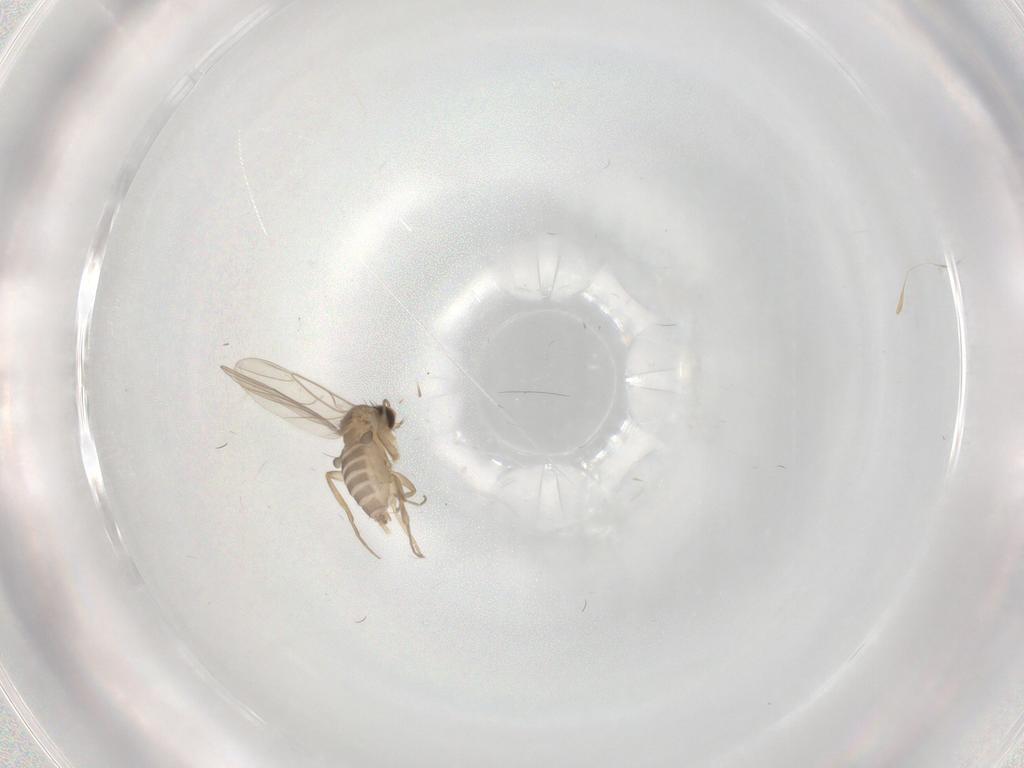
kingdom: Animalia
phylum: Arthropoda
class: Insecta
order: Diptera
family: Phoridae
